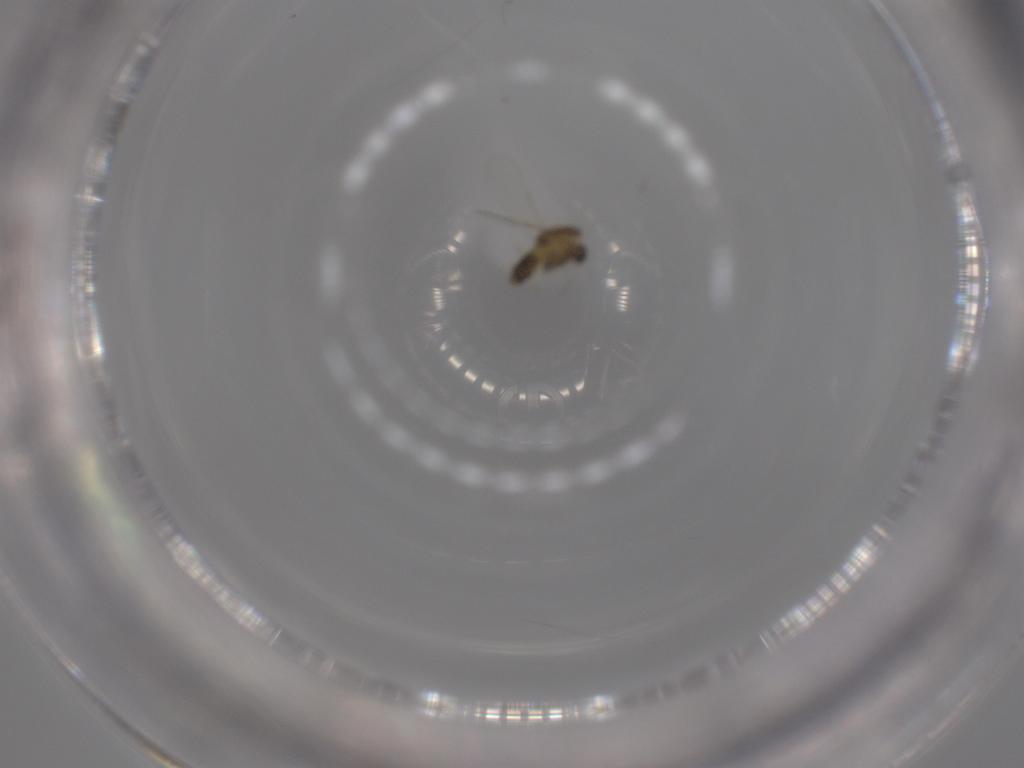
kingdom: Animalia
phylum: Arthropoda
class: Insecta
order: Diptera
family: Chironomidae
